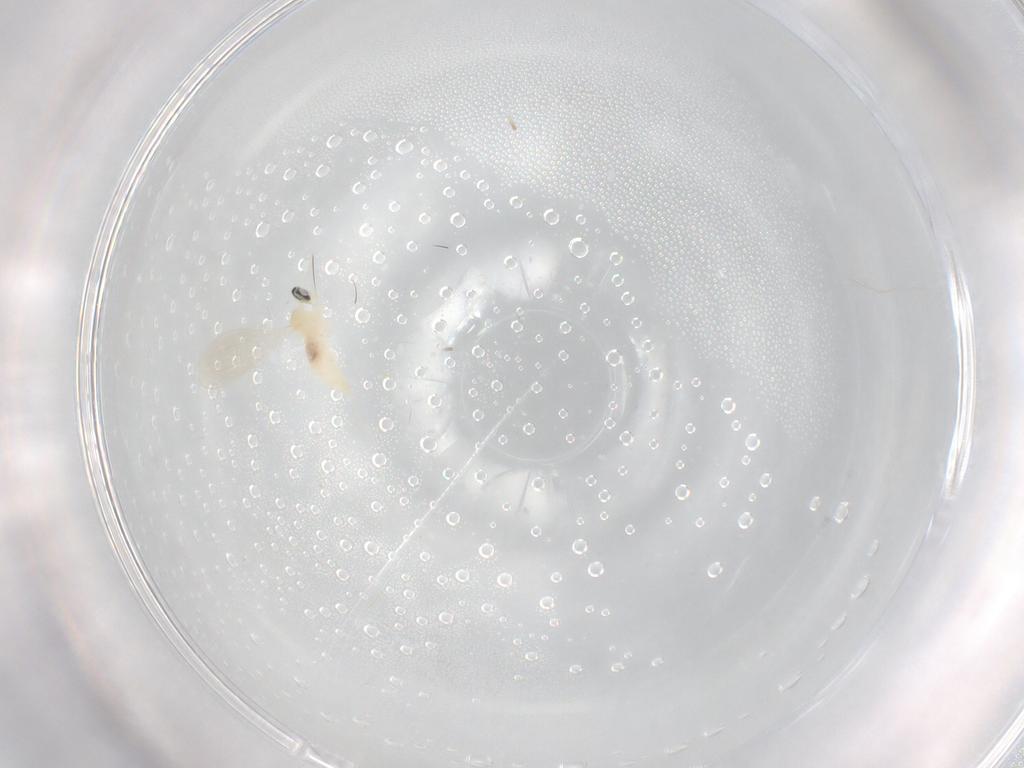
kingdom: Animalia
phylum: Arthropoda
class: Insecta
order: Diptera
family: Cecidomyiidae
